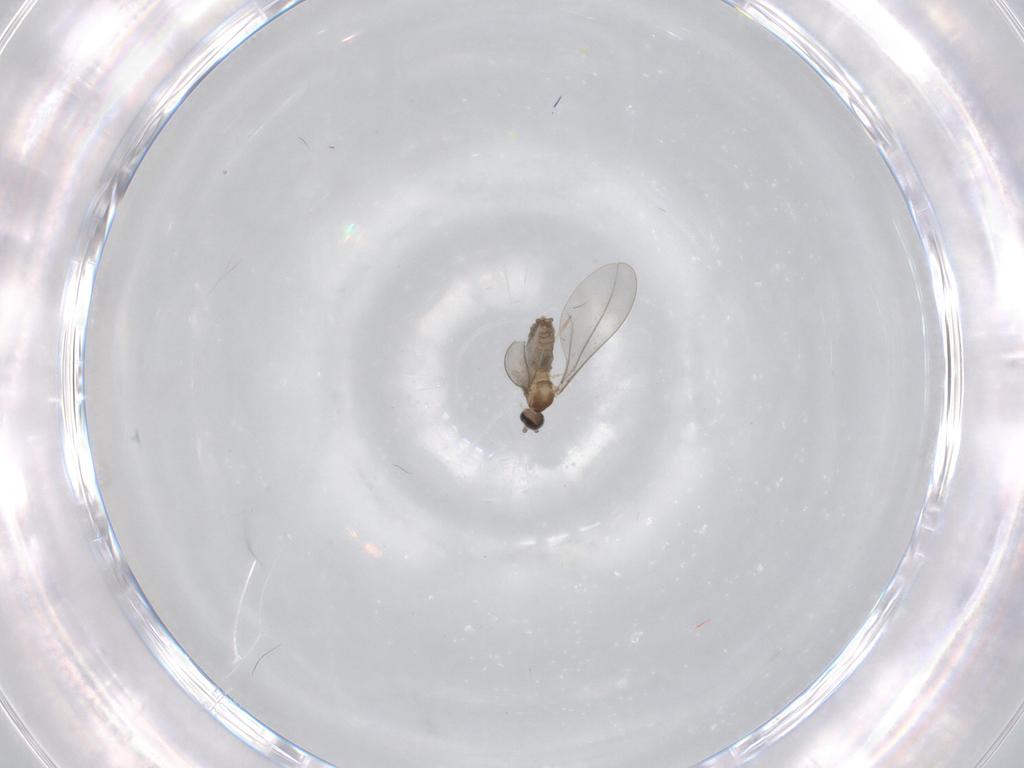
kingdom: Animalia
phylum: Arthropoda
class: Insecta
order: Diptera
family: Cecidomyiidae
